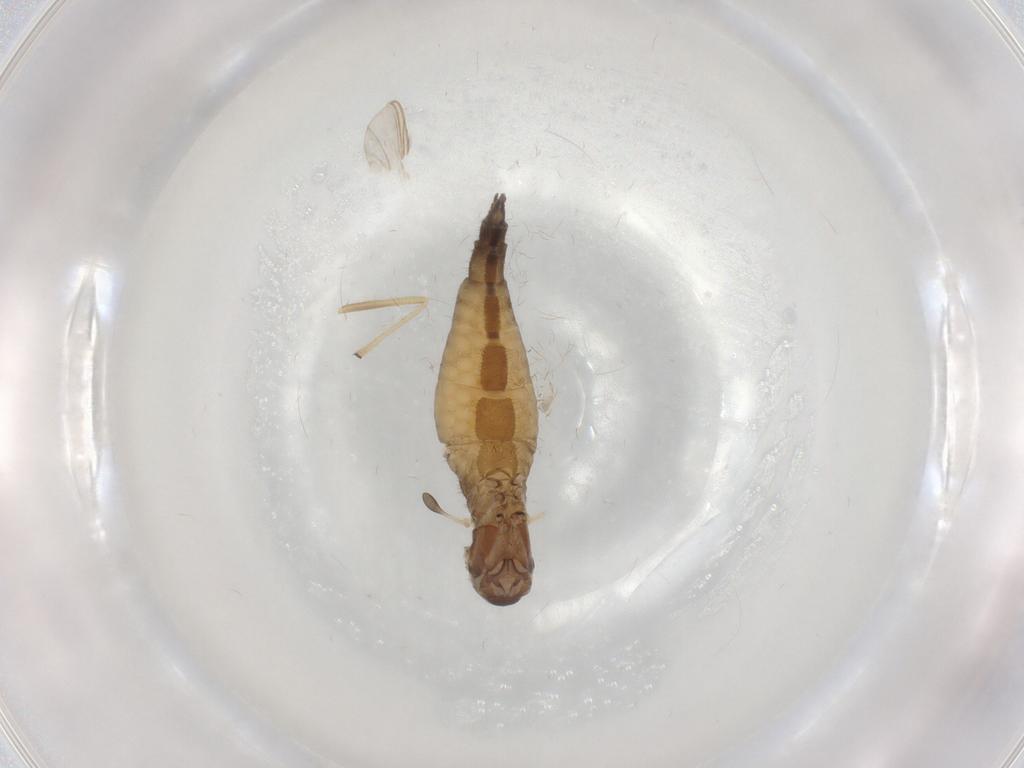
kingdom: Animalia
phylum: Arthropoda
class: Insecta
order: Diptera
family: Sciaridae
